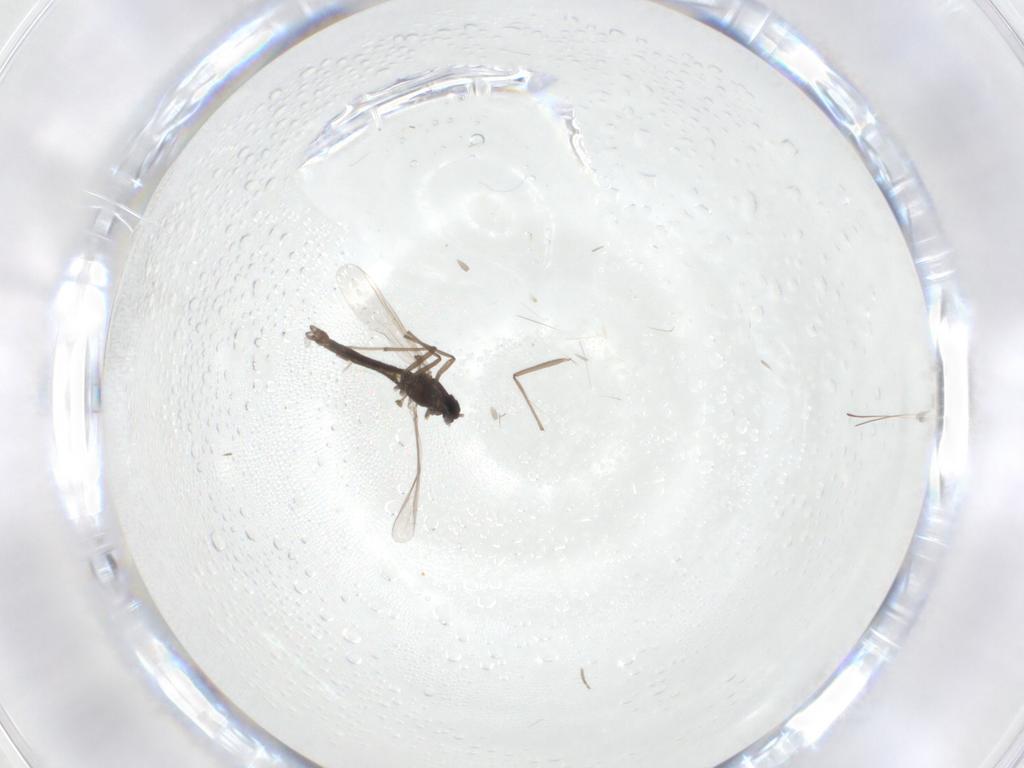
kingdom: Animalia
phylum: Arthropoda
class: Insecta
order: Diptera
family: Chironomidae
